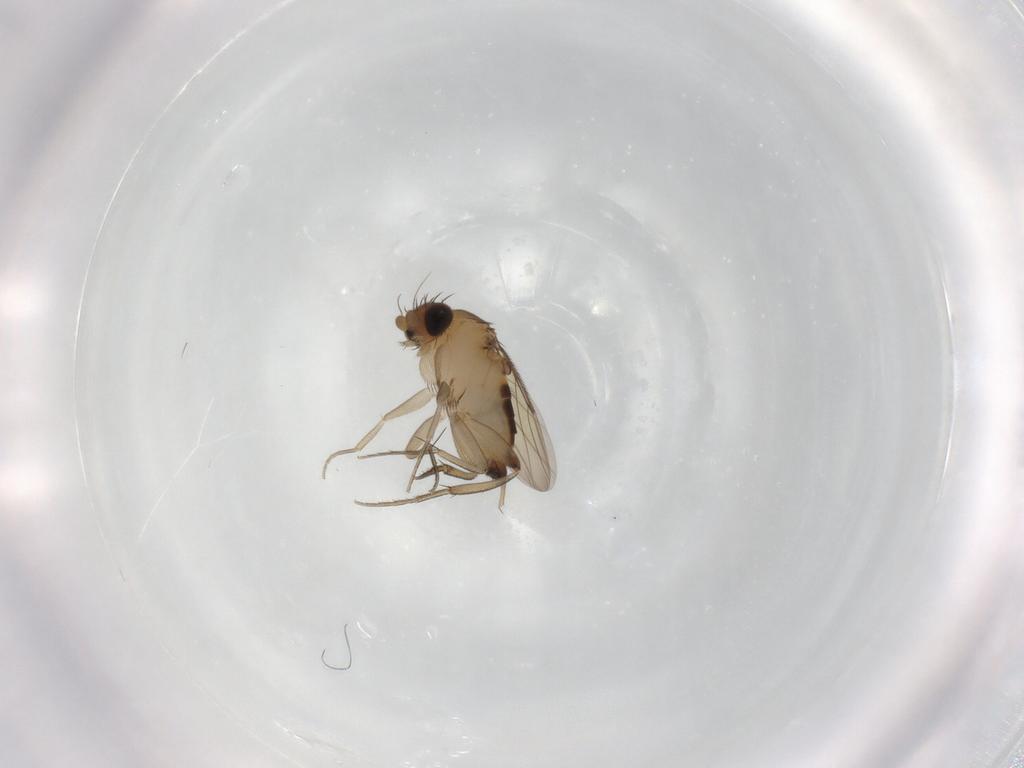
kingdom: Animalia
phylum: Arthropoda
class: Insecta
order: Diptera
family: Phoridae
